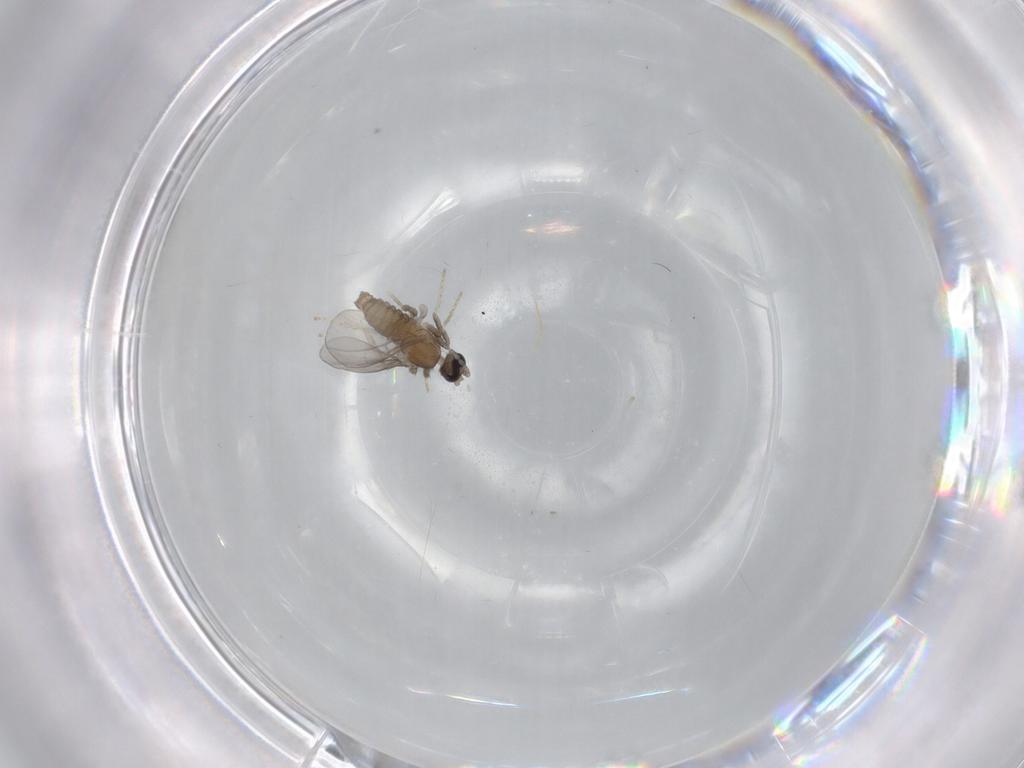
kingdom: Animalia
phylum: Arthropoda
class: Insecta
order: Diptera
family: Cecidomyiidae
